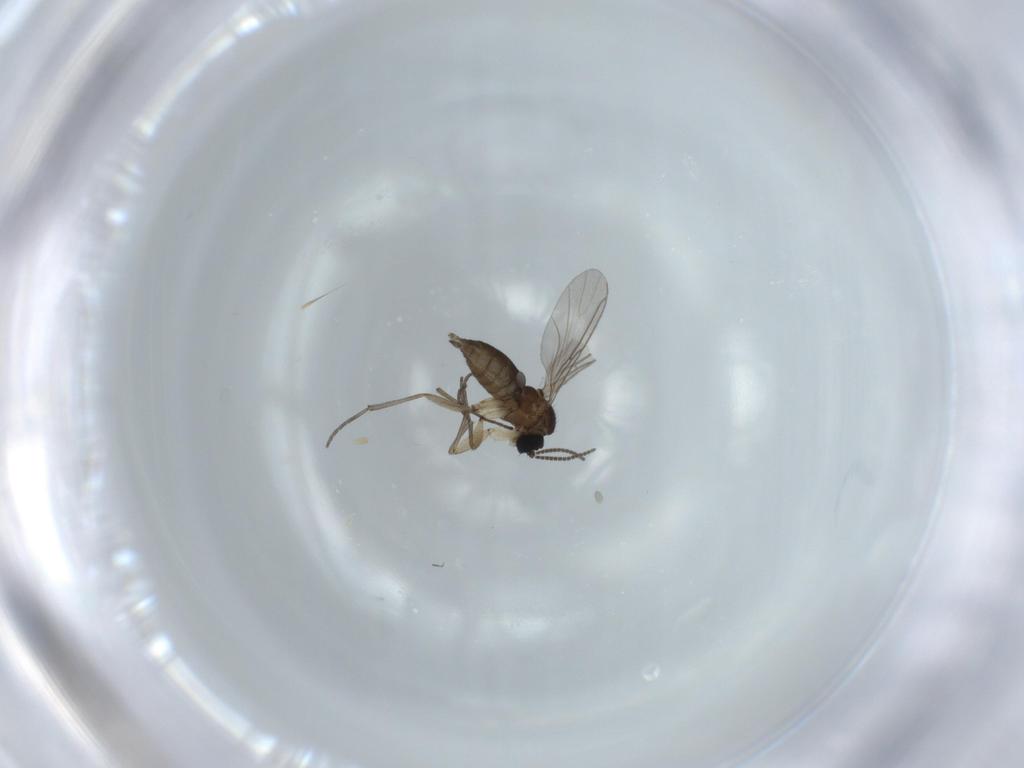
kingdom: Animalia
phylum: Arthropoda
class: Insecta
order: Diptera
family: Sciaridae
